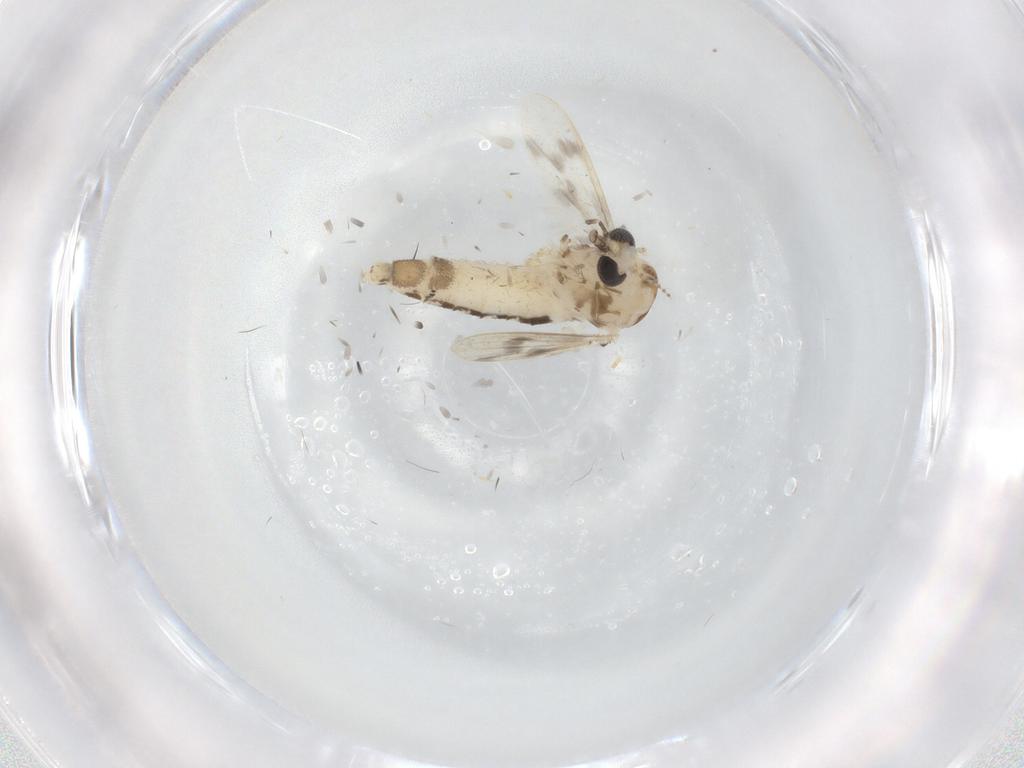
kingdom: Animalia
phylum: Arthropoda
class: Insecta
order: Diptera
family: Corethrellidae
